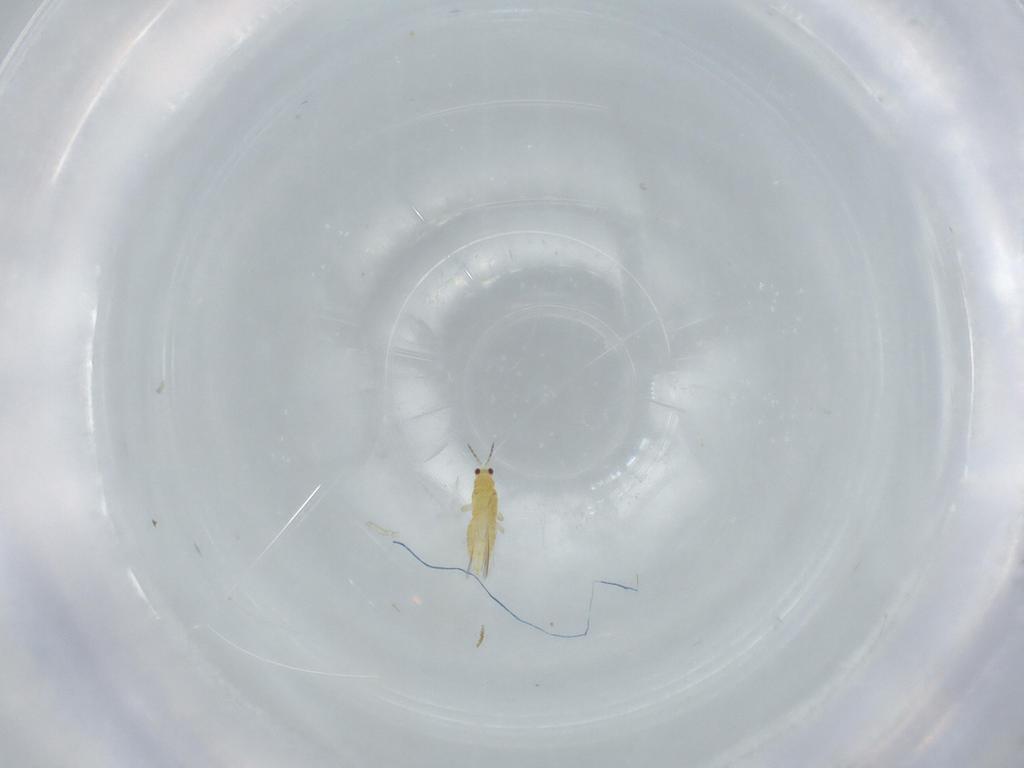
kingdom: Animalia
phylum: Arthropoda
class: Insecta
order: Thysanoptera
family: Thripidae
